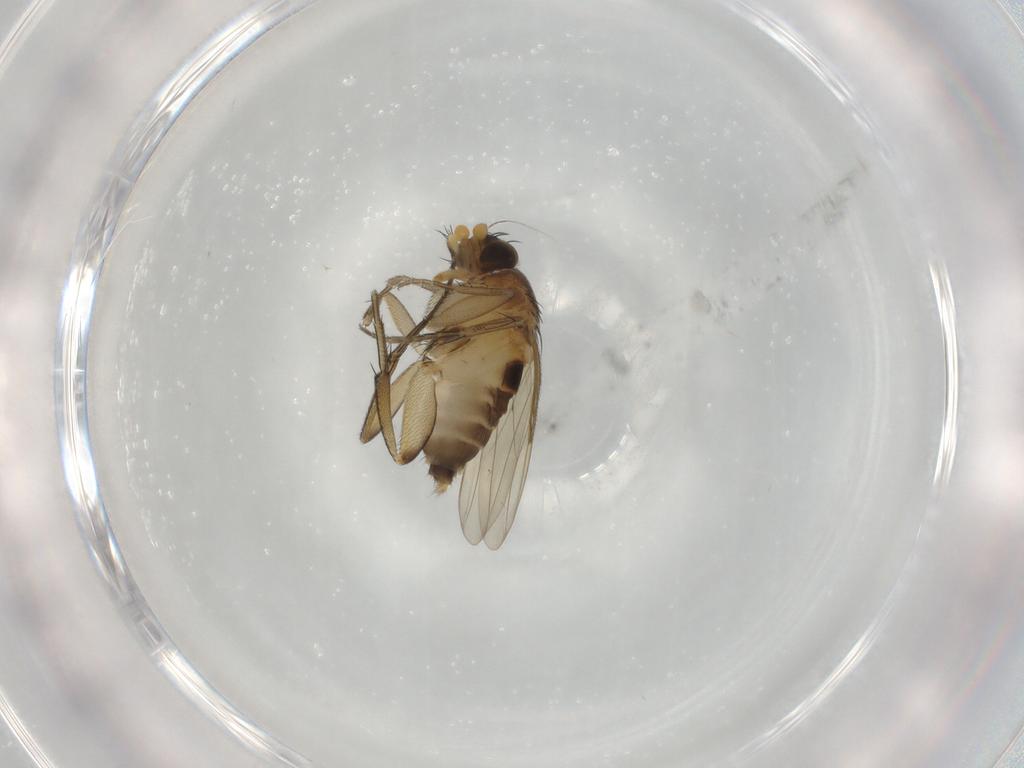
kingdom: Animalia
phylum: Arthropoda
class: Insecta
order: Diptera
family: Phoridae
